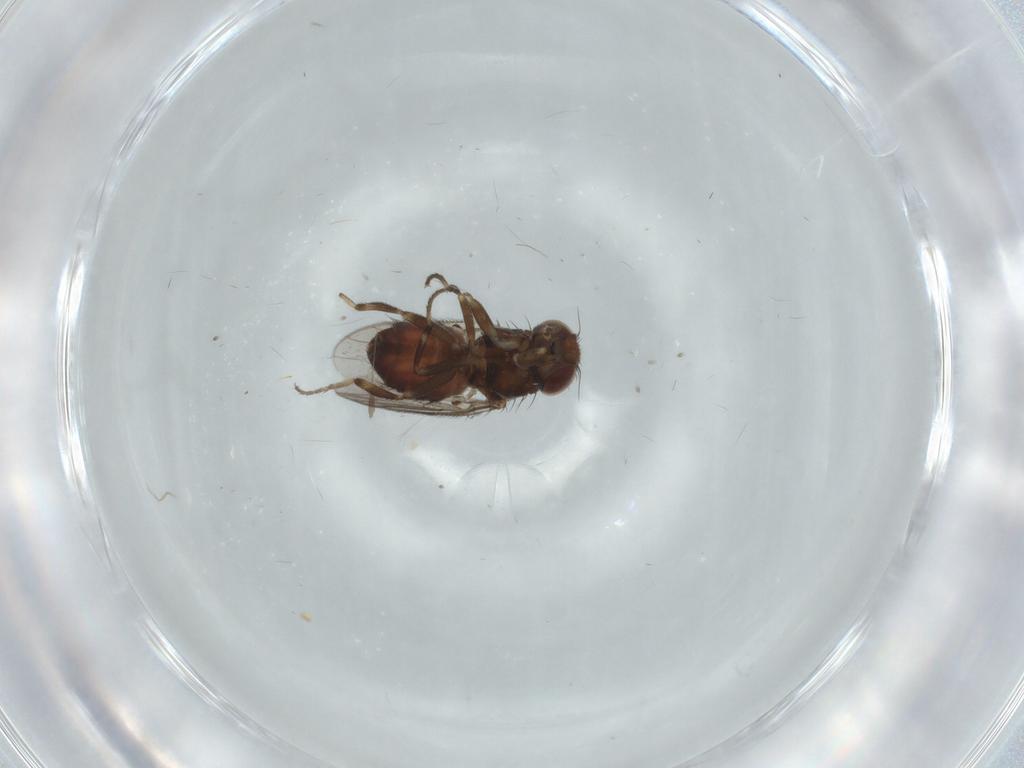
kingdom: Animalia
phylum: Arthropoda
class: Insecta
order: Diptera
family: Chloropidae
